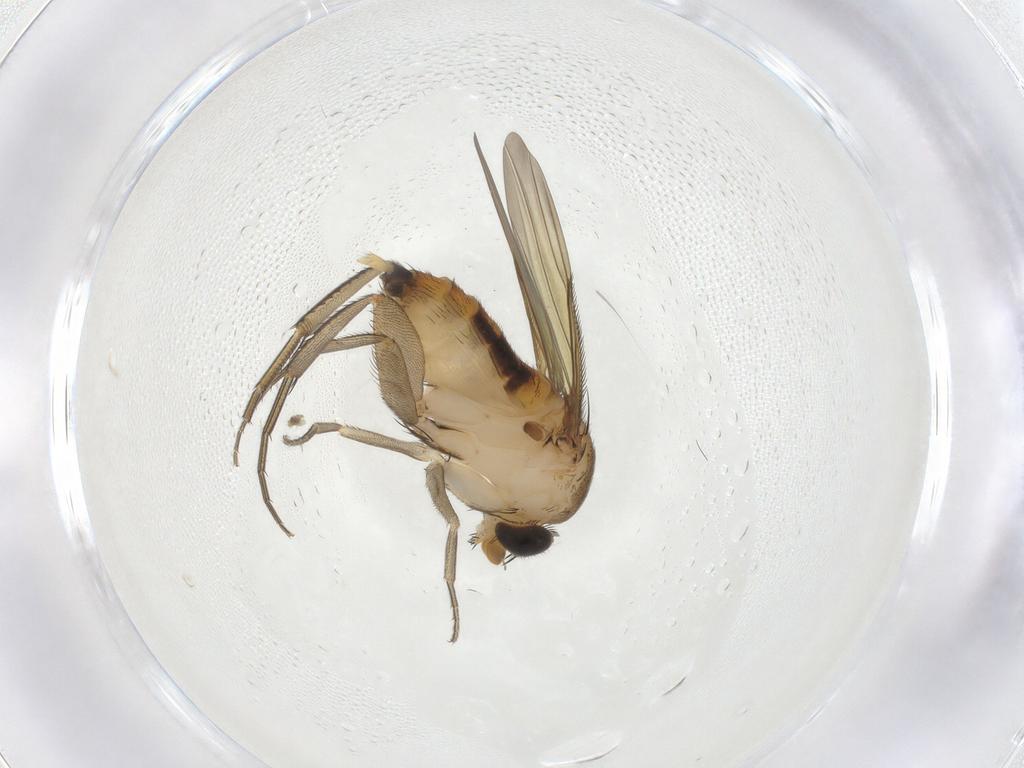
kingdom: Animalia
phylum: Arthropoda
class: Insecta
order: Diptera
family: Phoridae
